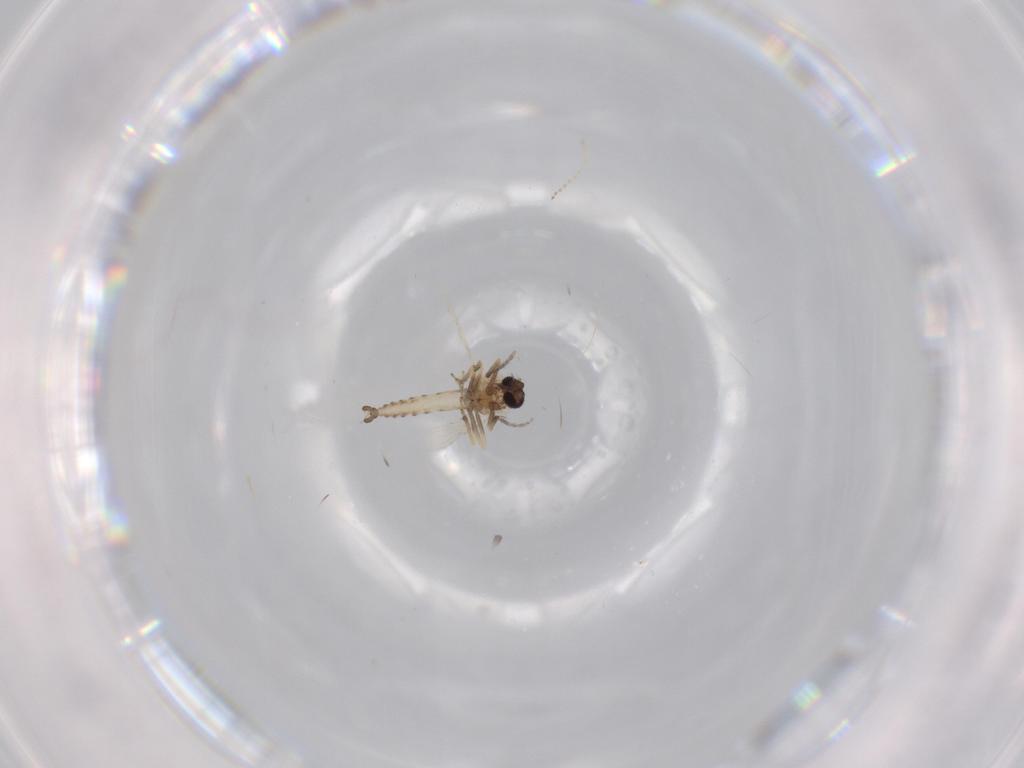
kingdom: Animalia
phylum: Arthropoda
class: Insecta
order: Diptera
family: Cecidomyiidae
